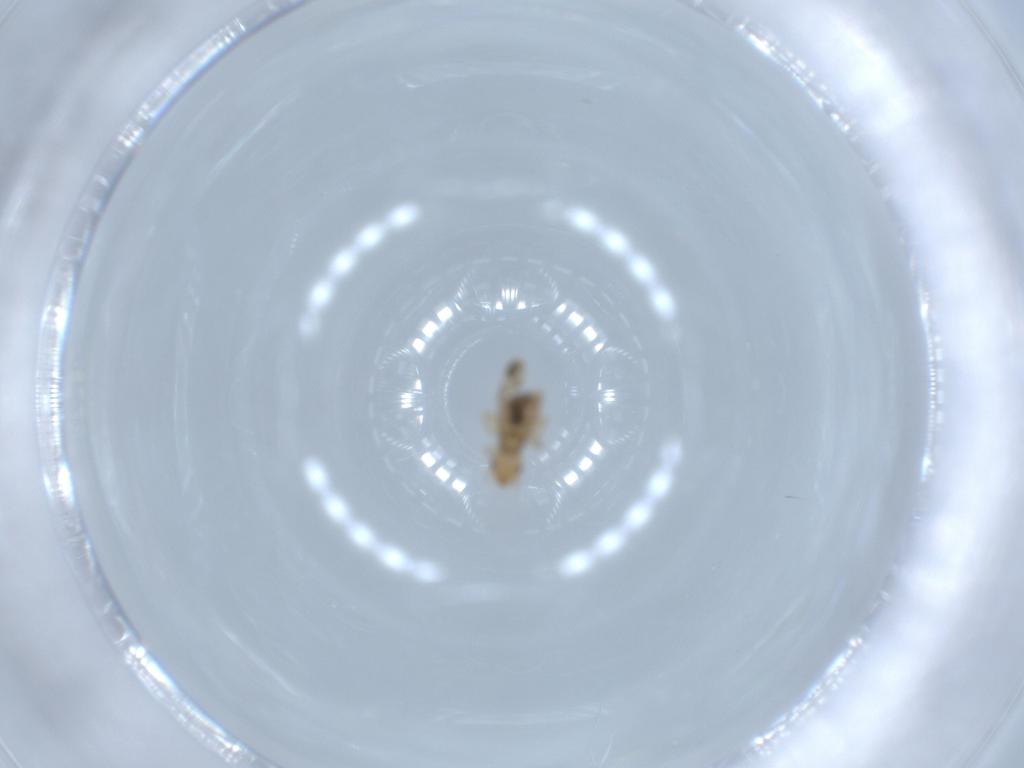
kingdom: Animalia
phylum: Arthropoda
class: Insecta
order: Psocodea
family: Liposcelididae
